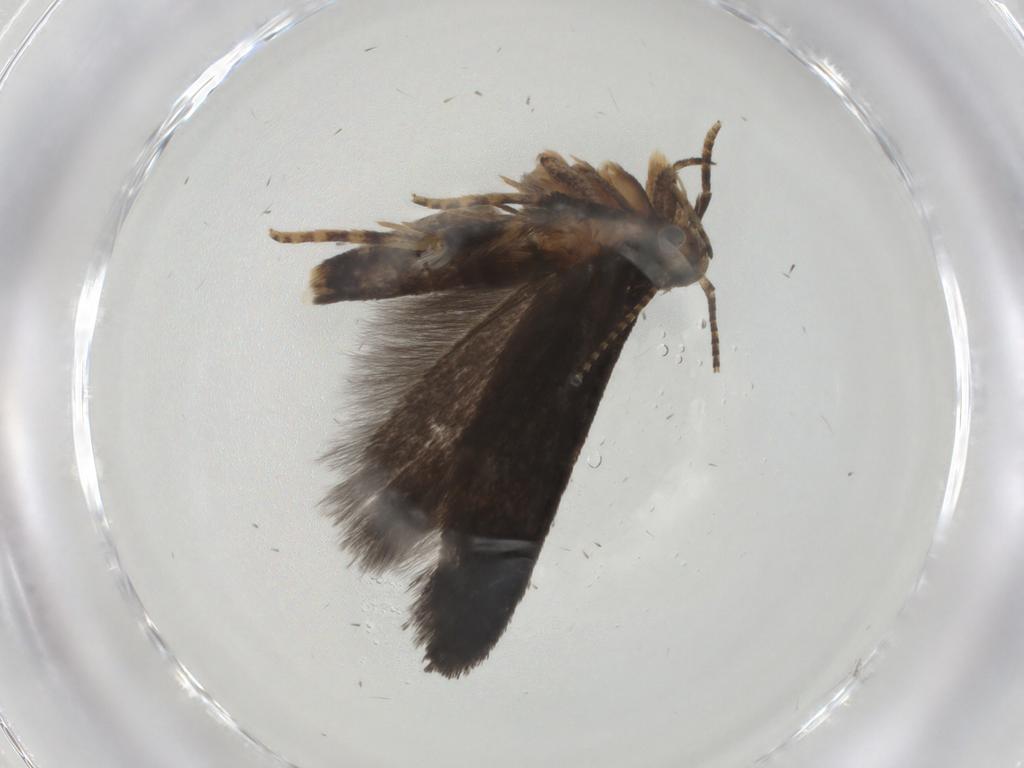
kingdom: Animalia
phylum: Arthropoda
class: Insecta
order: Lepidoptera
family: Gelechiidae
